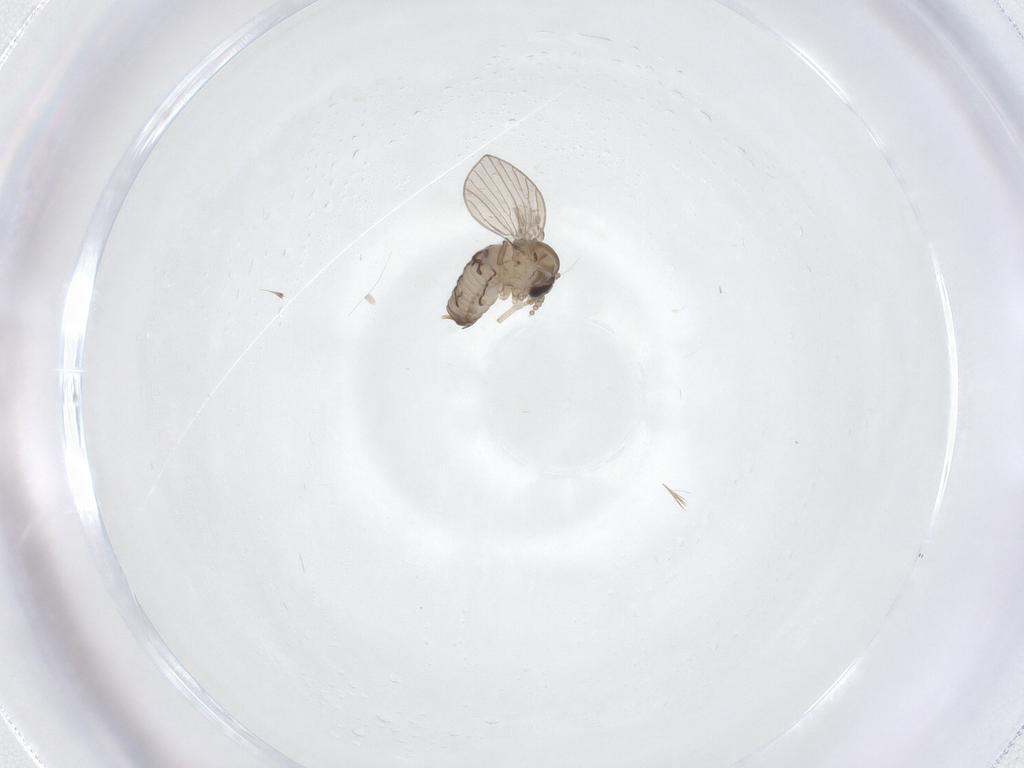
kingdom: Animalia
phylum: Arthropoda
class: Insecta
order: Diptera
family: Psychodidae
